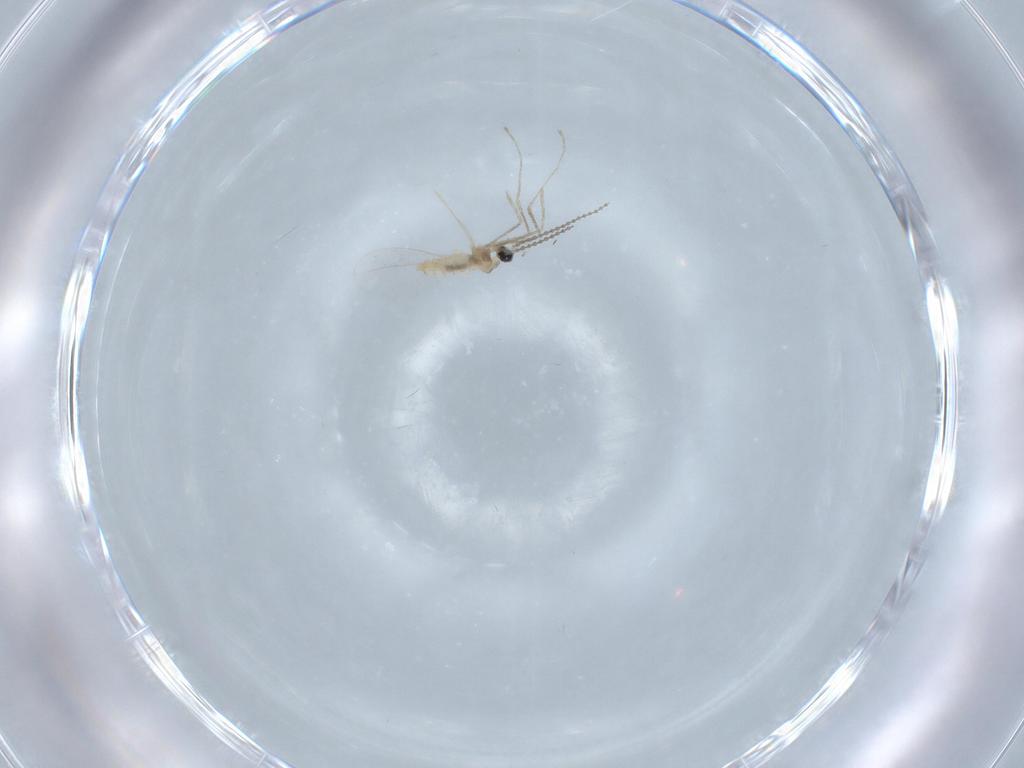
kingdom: Animalia
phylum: Arthropoda
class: Insecta
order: Diptera
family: Cecidomyiidae
